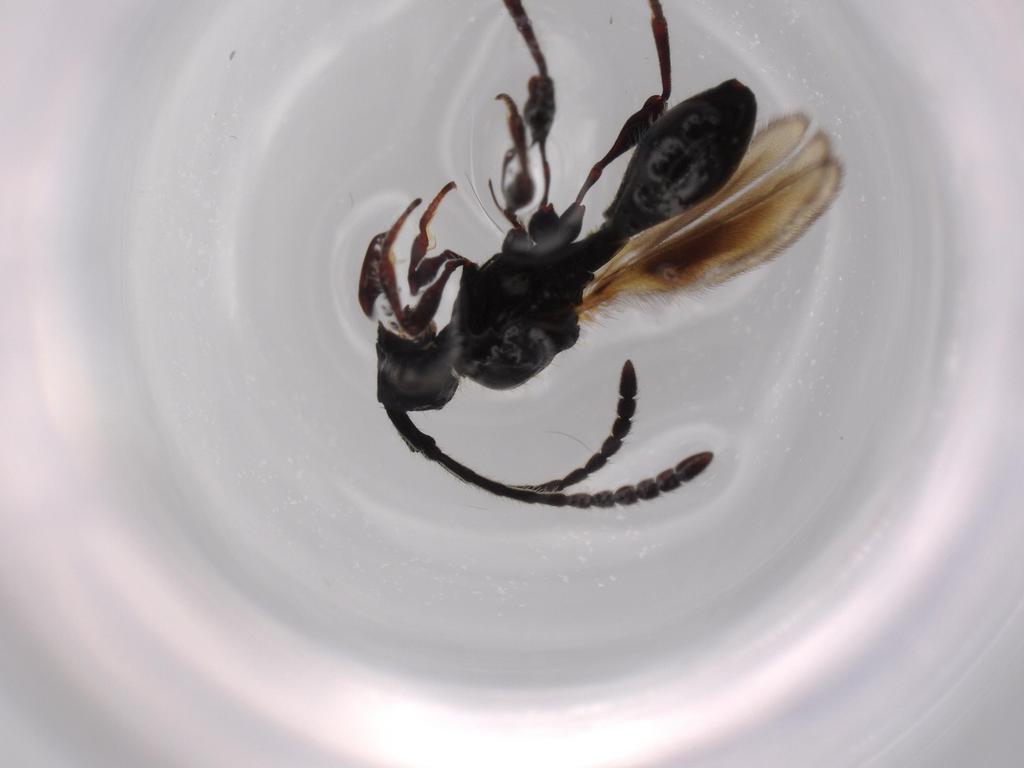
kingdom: Animalia
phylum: Arthropoda
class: Insecta
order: Hymenoptera
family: Diapriidae
